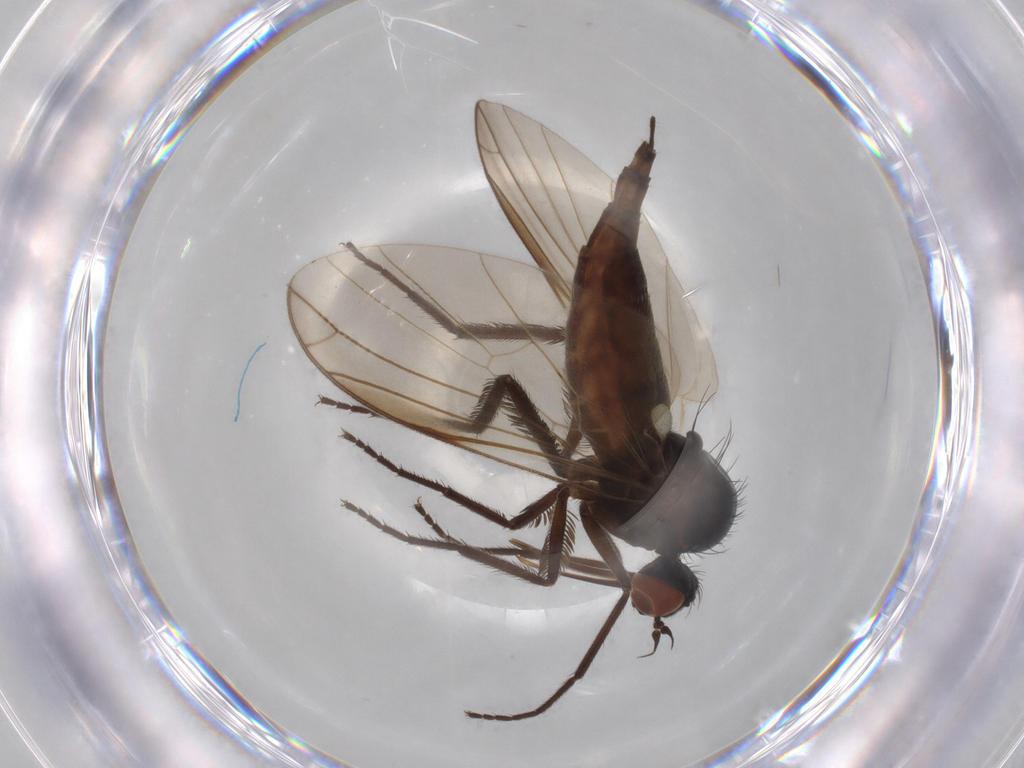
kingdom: Animalia
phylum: Arthropoda
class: Insecta
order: Diptera
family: Empididae
